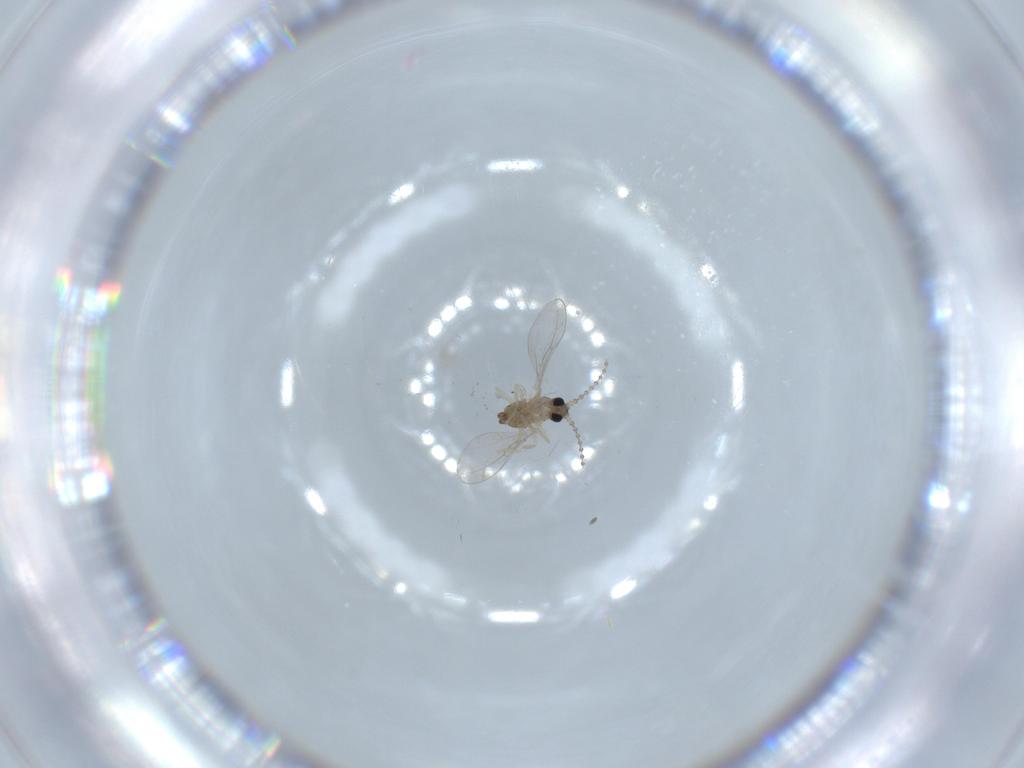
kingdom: Animalia
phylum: Arthropoda
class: Insecta
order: Diptera
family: Cecidomyiidae
